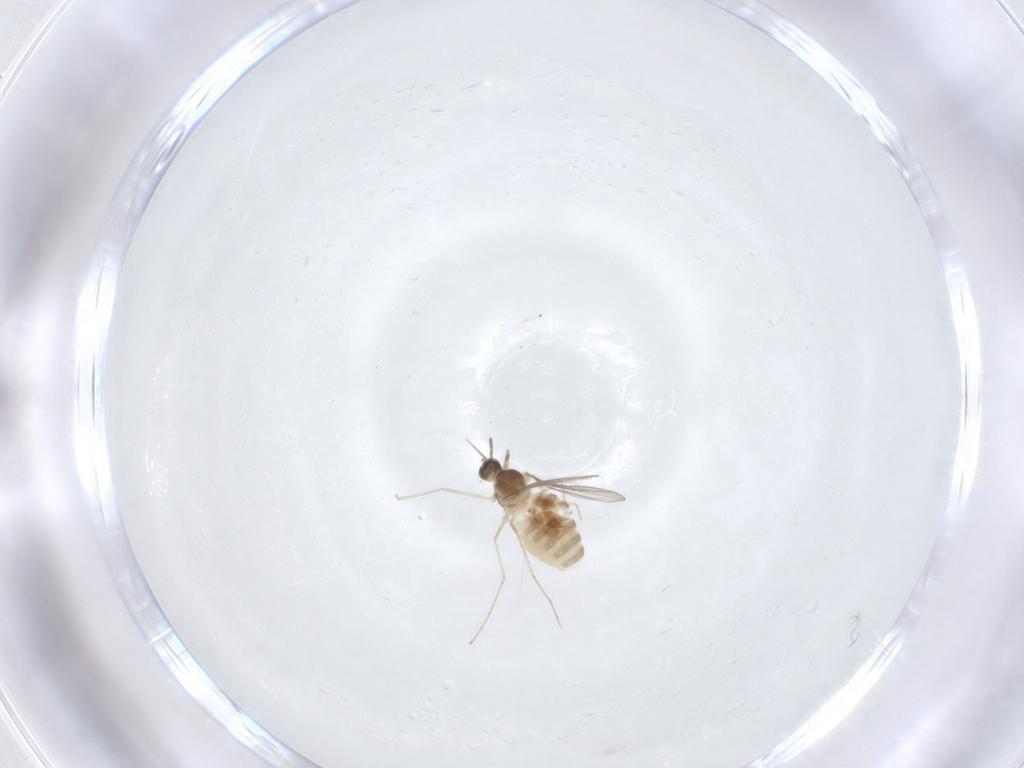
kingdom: Animalia
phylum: Arthropoda
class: Insecta
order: Diptera
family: Cecidomyiidae
